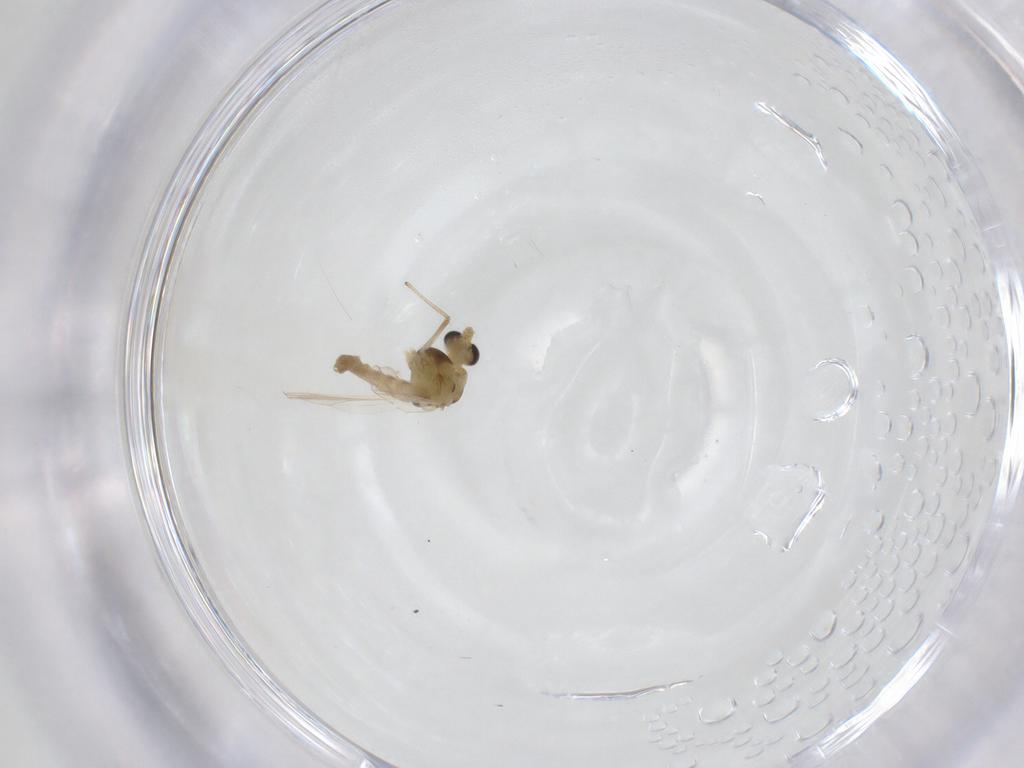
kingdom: Animalia
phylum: Arthropoda
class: Insecta
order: Diptera
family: Chironomidae
